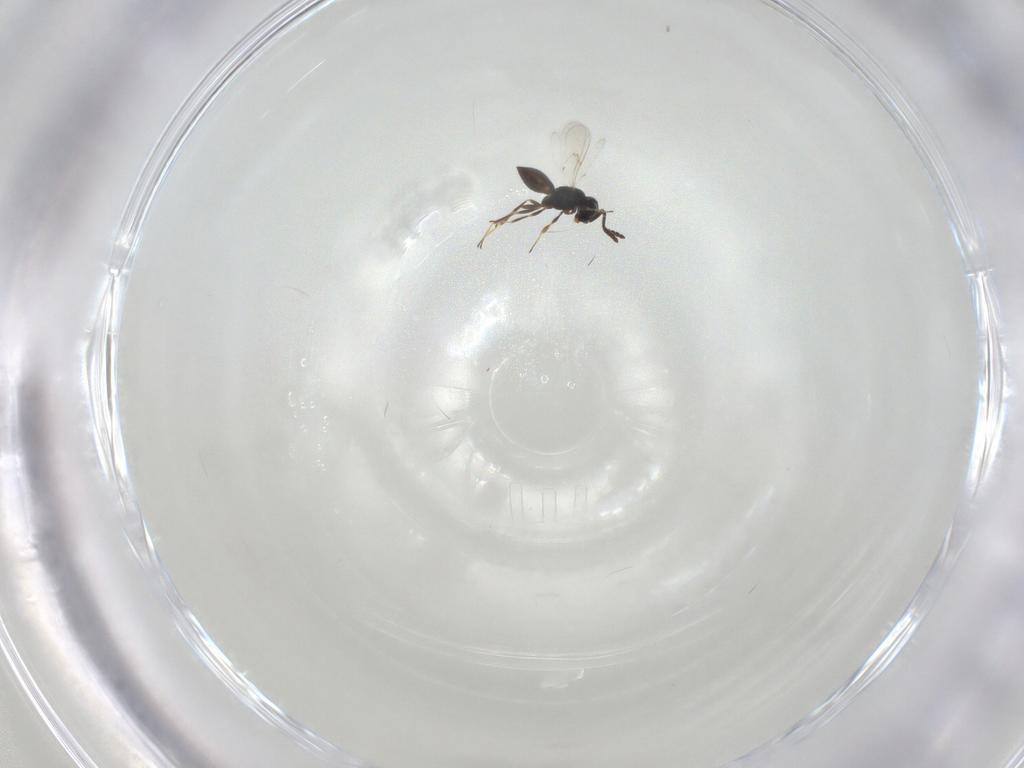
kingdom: Animalia
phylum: Arthropoda
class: Insecta
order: Hymenoptera
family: Scelionidae
